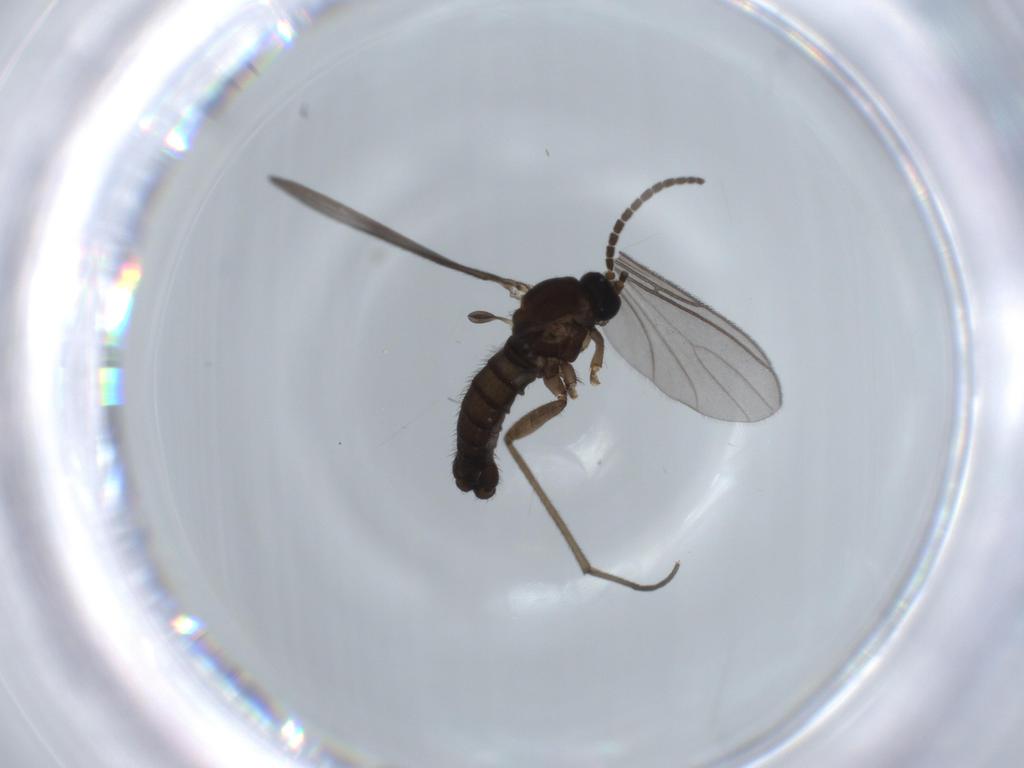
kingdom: Animalia
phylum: Arthropoda
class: Insecta
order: Diptera
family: Sciaridae
